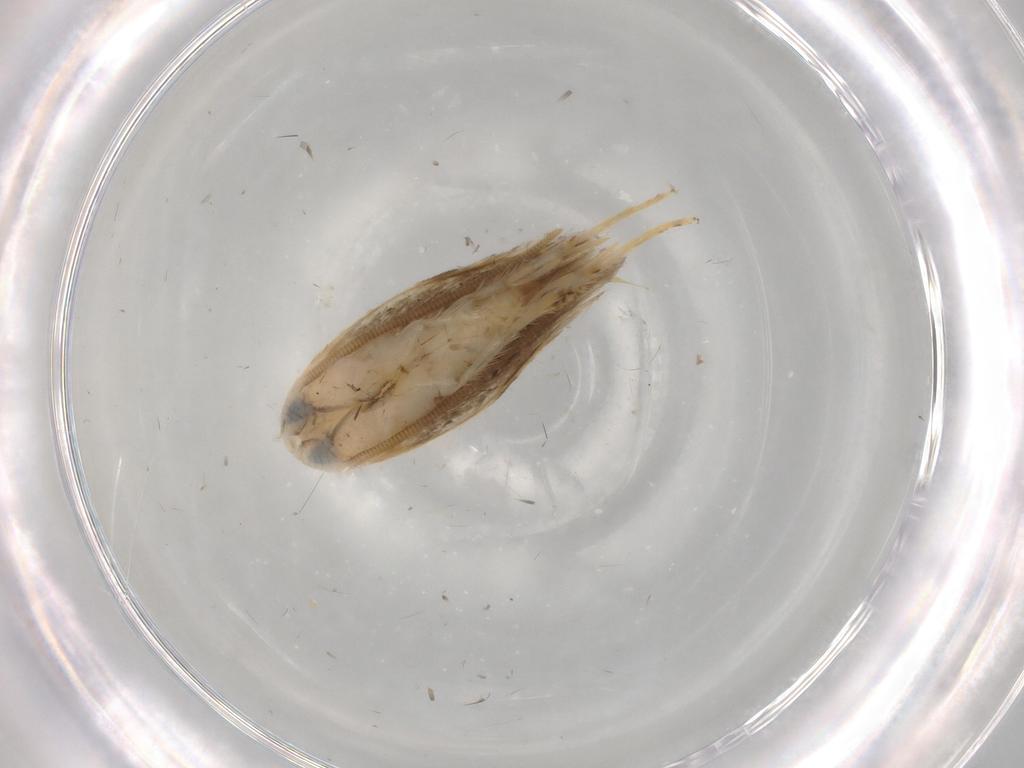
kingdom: Animalia
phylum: Arthropoda
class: Insecta
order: Lepidoptera
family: Opostegidae
